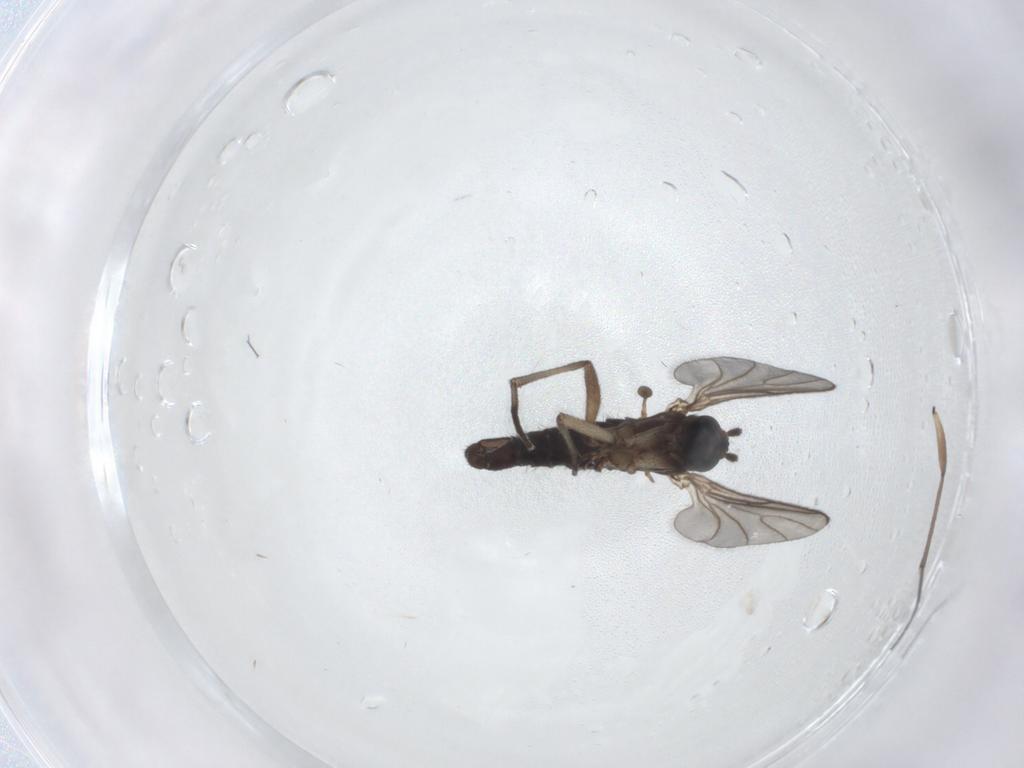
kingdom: Animalia
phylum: Arthropoda
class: Insecta
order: Diptera
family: Sciaridae
